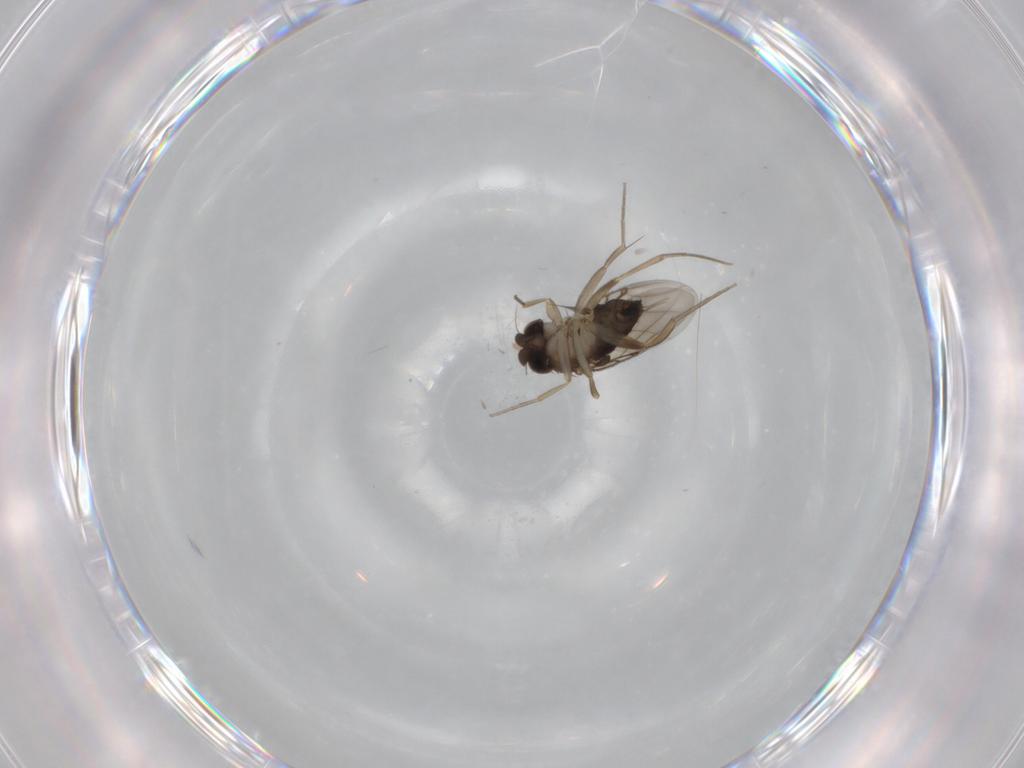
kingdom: Animalia
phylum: Arthropoda
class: Insecta
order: Diptera
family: Phoridae
